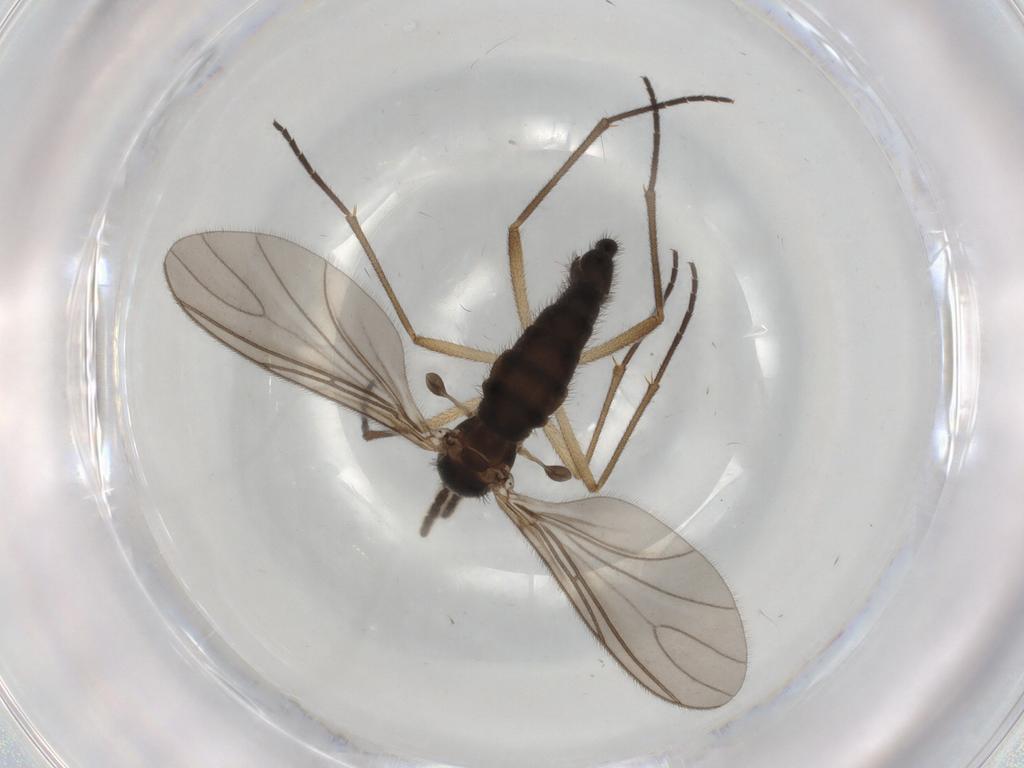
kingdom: Animalia
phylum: Arthropoda
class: Insecta
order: Diptera
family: Sciaridae
